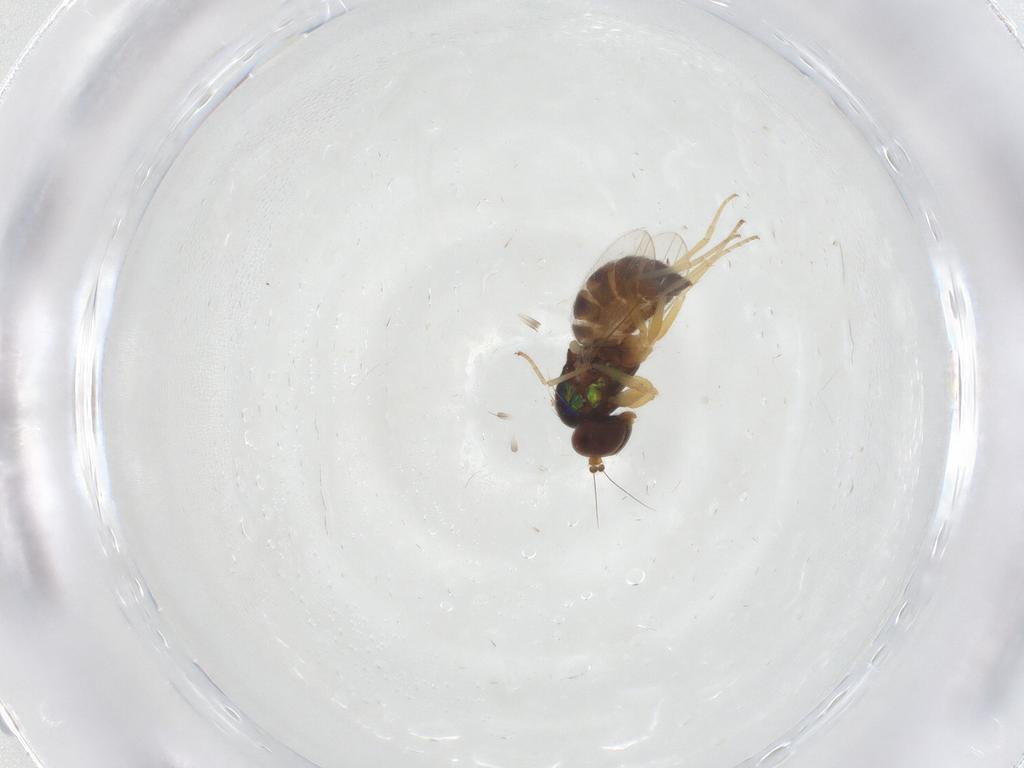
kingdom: Animalia
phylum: Arthropoda
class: Insecta
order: Diptera
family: Dolichopodidae
